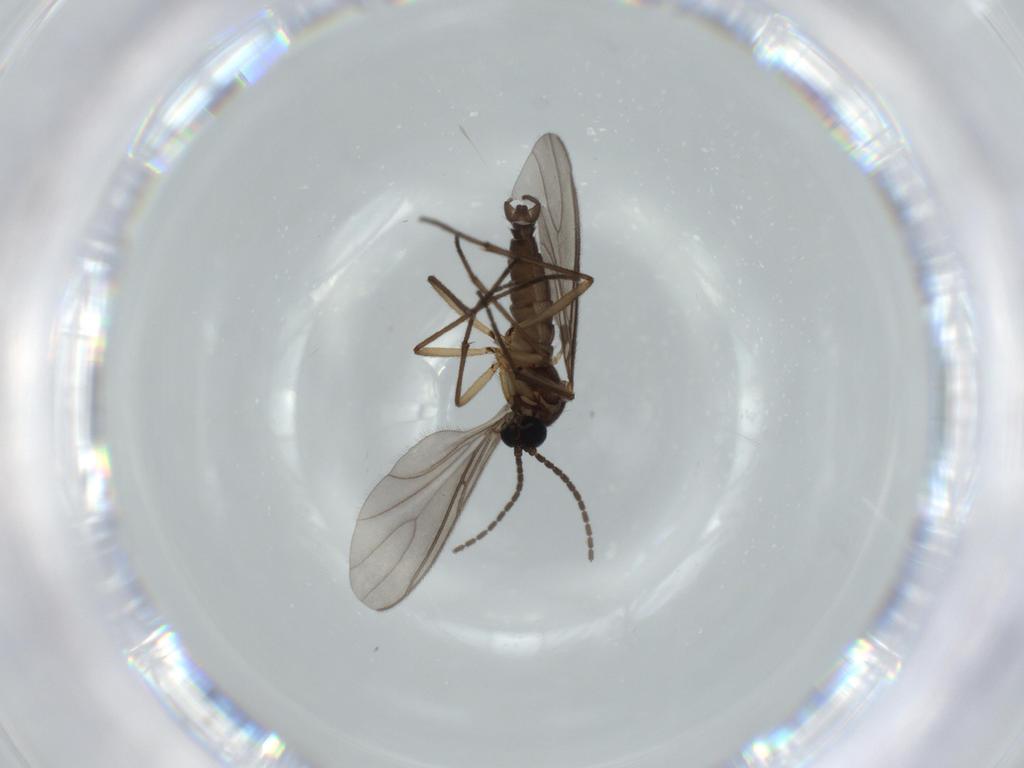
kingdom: Animalia
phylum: Arthropoda
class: Insecta
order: Diptera
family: Sciaridae
